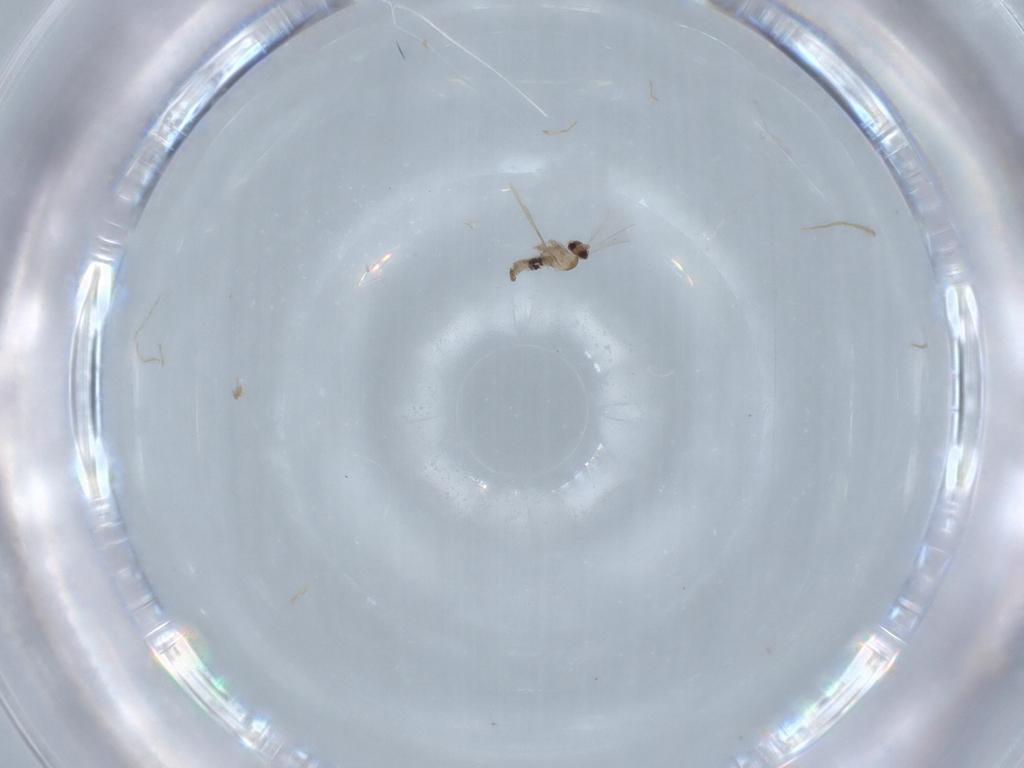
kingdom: Animalia
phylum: Arthropoda
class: Insecta
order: Diptera
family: Cecidomyiidae
